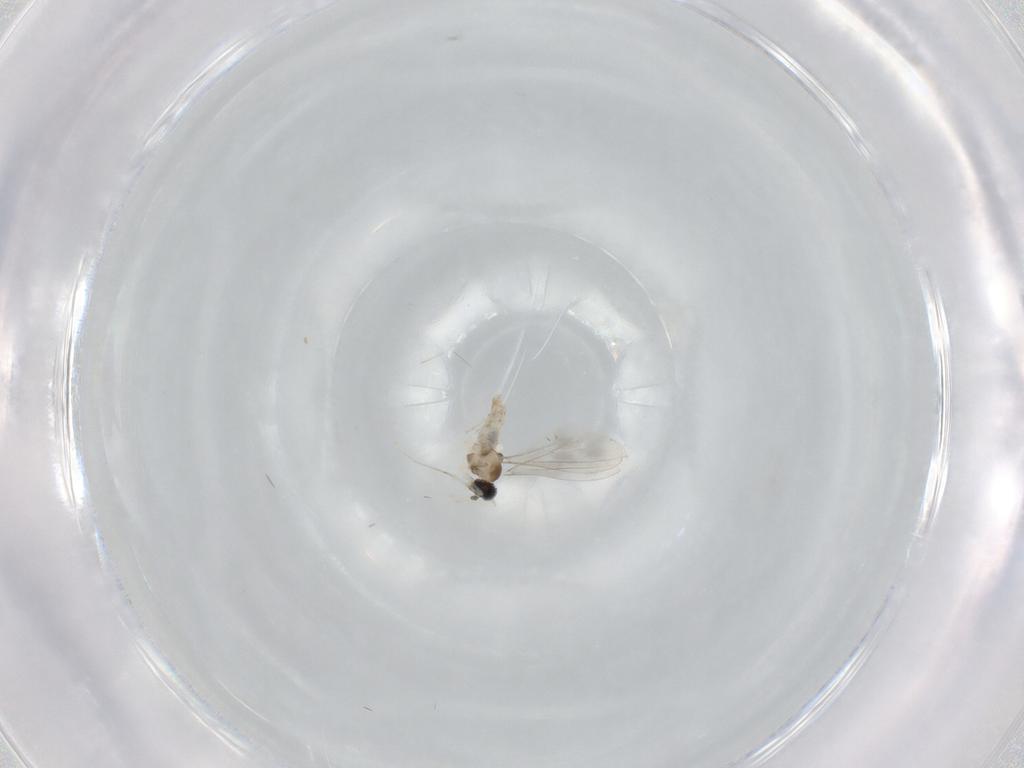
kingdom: Animalia
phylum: Arthropoda
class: Insecta
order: Diptera
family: Cecidomyiidae
